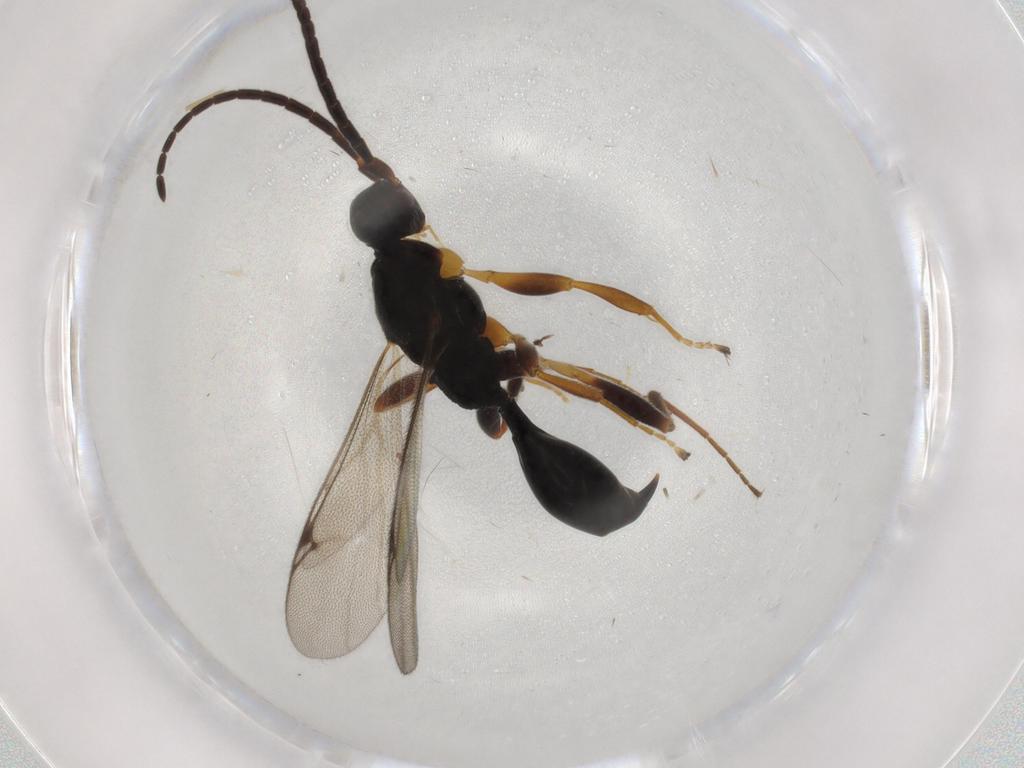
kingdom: Animalia
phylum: Arthropoda
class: Insecta
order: Hymenoptera
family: Proctotrupidae
